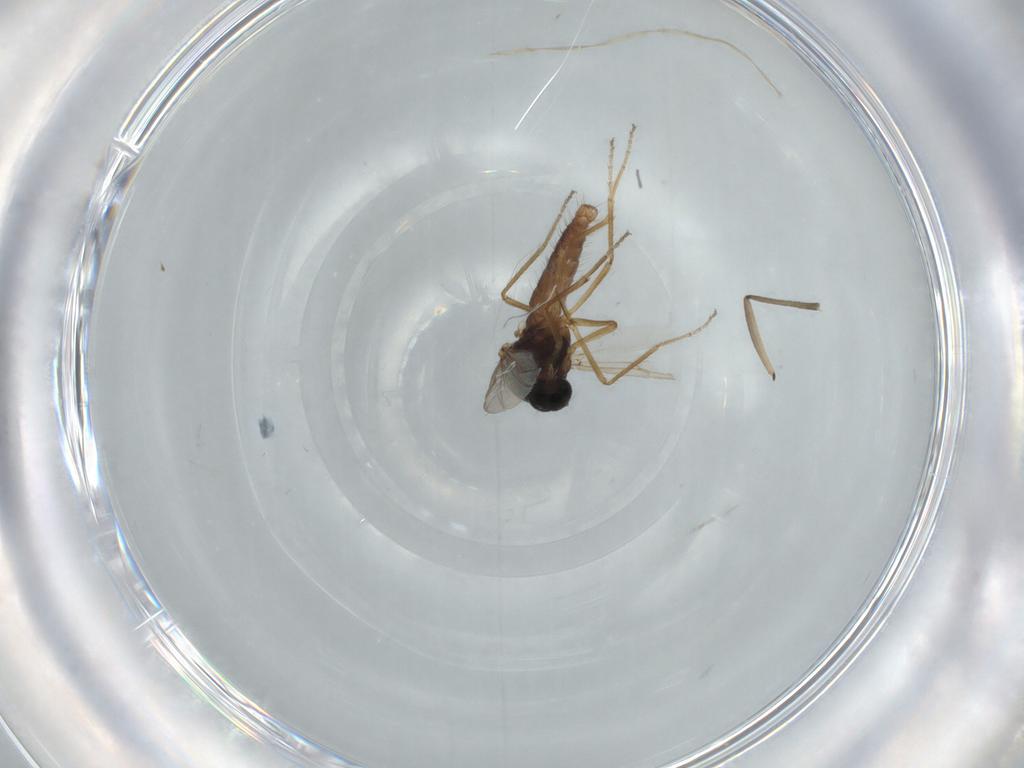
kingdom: Animalia
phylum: Arthropoda
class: Insecta
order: Diptera
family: Ceratopogonidae
